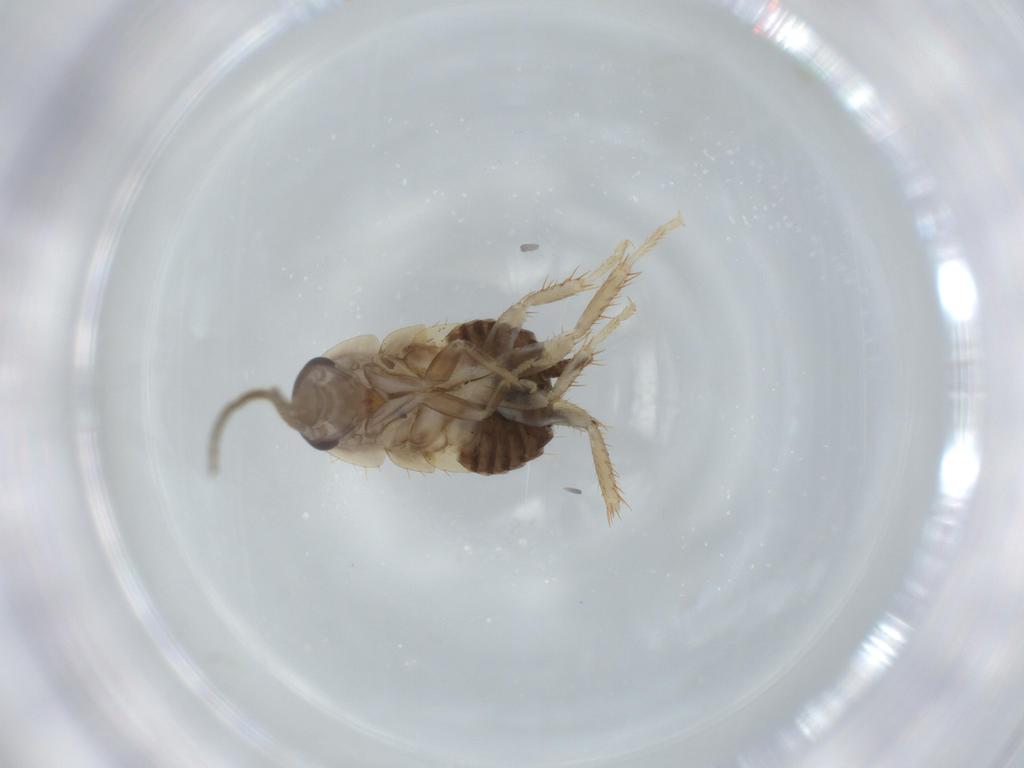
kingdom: Animalia
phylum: Arthropoda
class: Insecta
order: Blattodea
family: Ectobiidae
